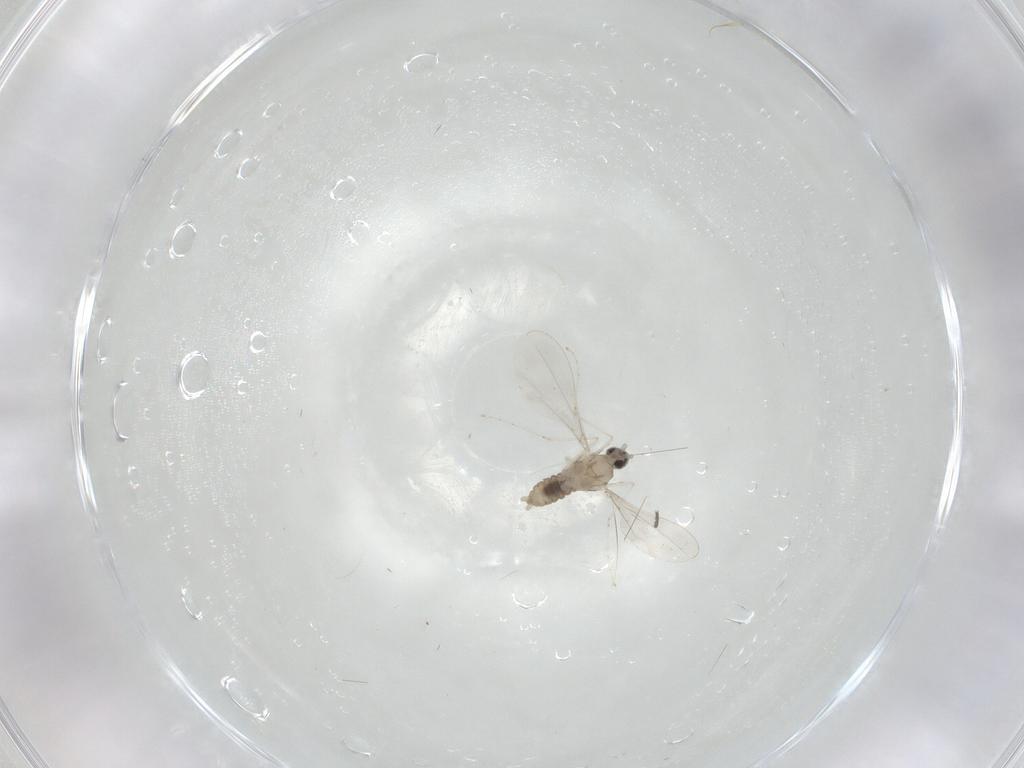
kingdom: Animalia
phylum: Arthropoda
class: Insecta
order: Diptera
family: Cecidomyiidae
